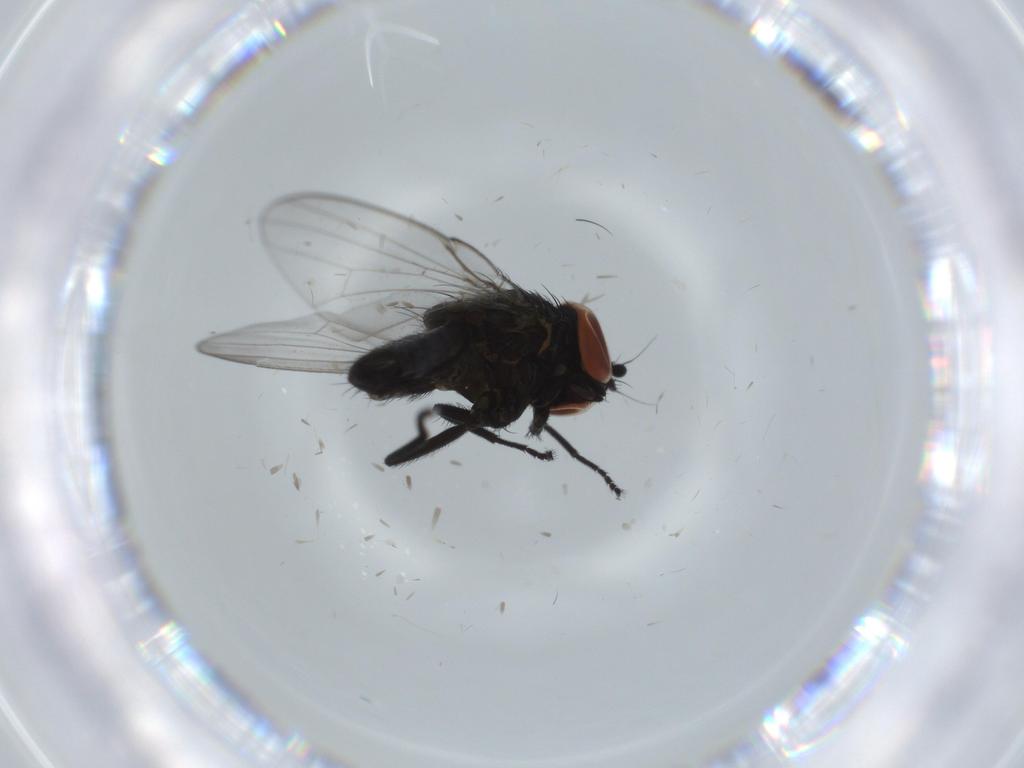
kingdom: Animalia
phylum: Arthropoda
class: Insecta
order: Diptera
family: Milichiidae
